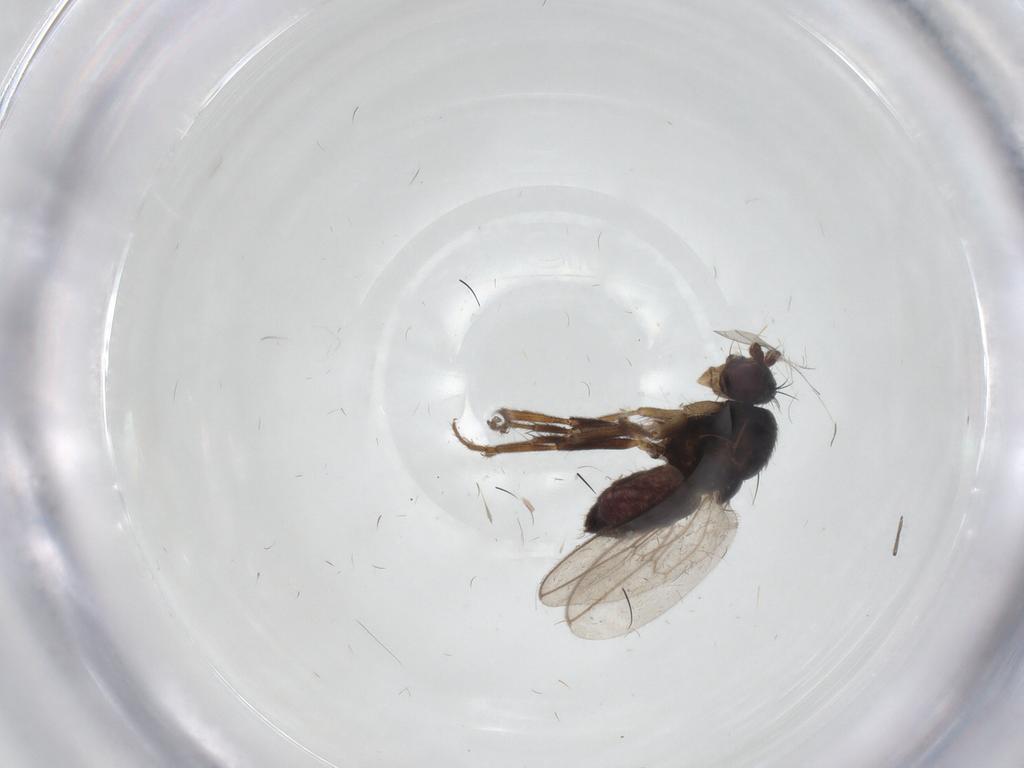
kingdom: Animalia
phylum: Arthropoda
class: Insecta
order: Diptera
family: Sphaeroceridae
